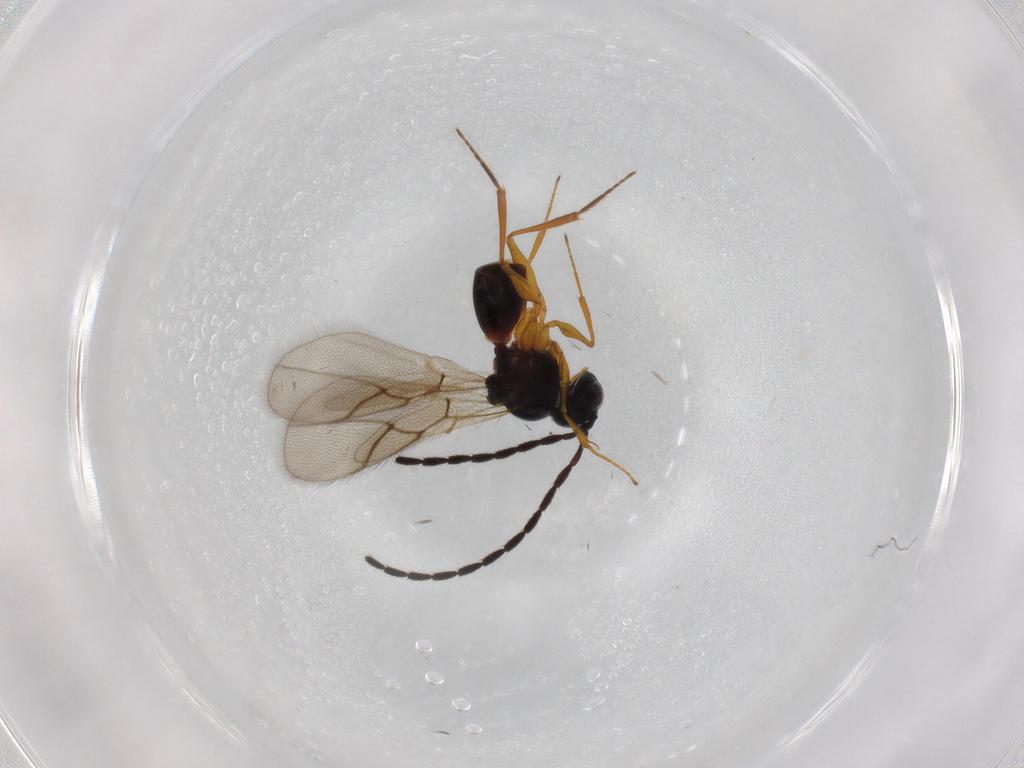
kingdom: Animalia
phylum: Arthropoda
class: Insecta
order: Hymenoptera
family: Figitidae
